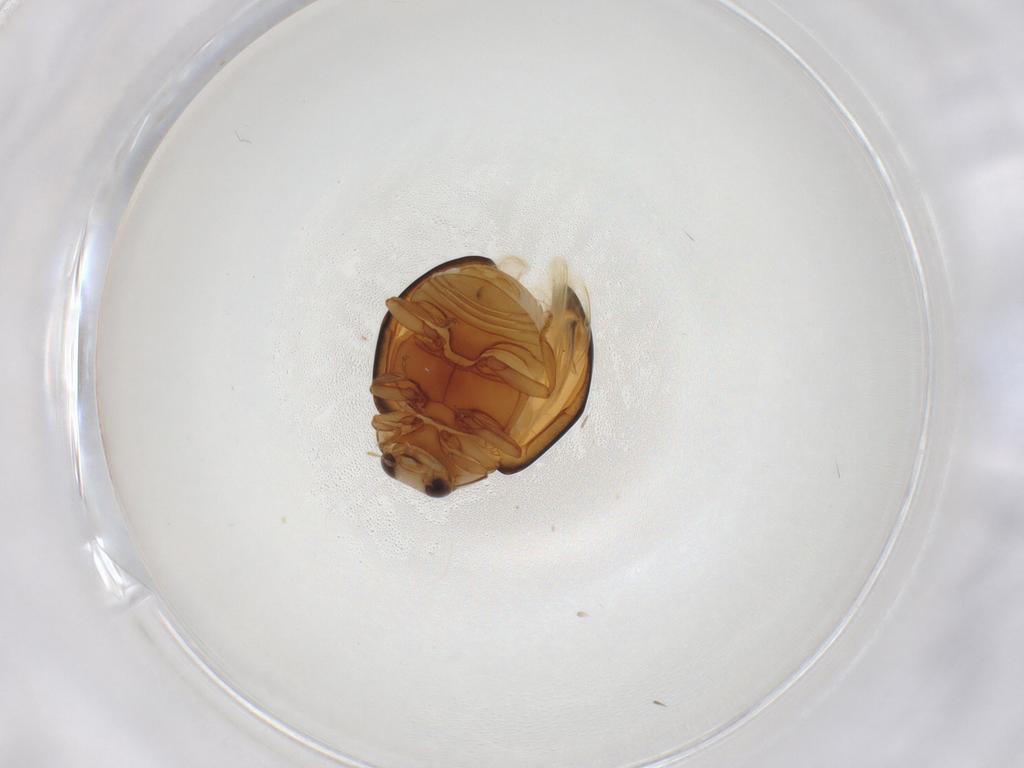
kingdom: Animalia
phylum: Arthropoda
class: Insecta
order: Coleoptera
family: Coccinellidae
